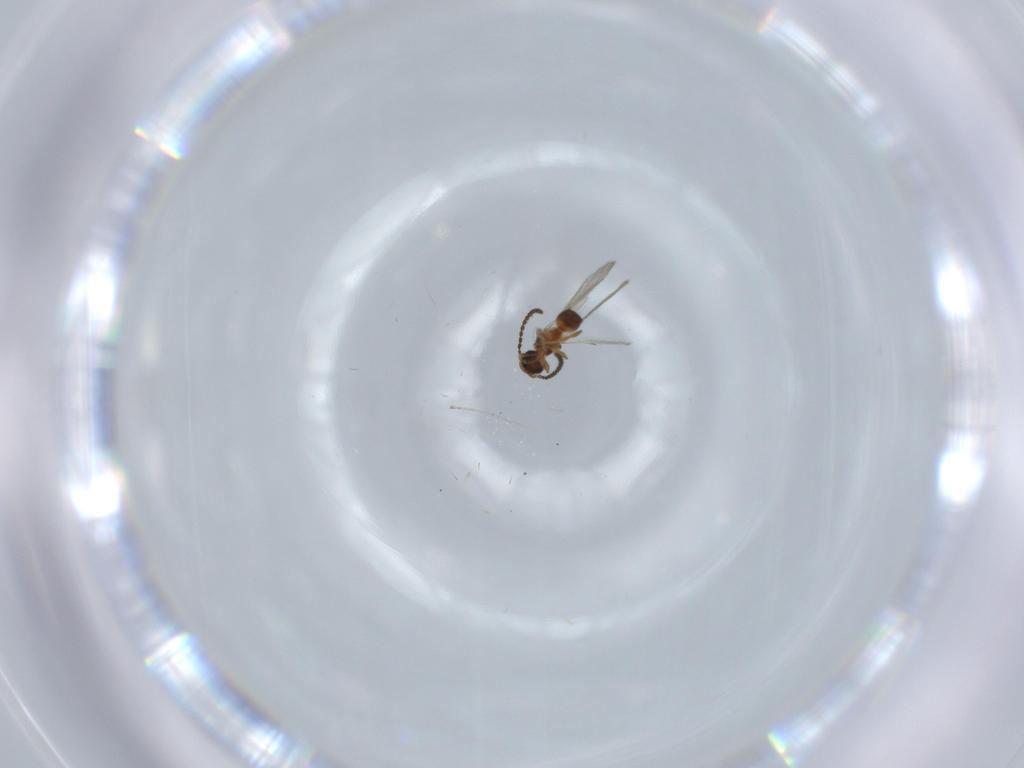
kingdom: Animalia
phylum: Arthropoda
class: Insecta
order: Hymenoptera
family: Diapriidae
